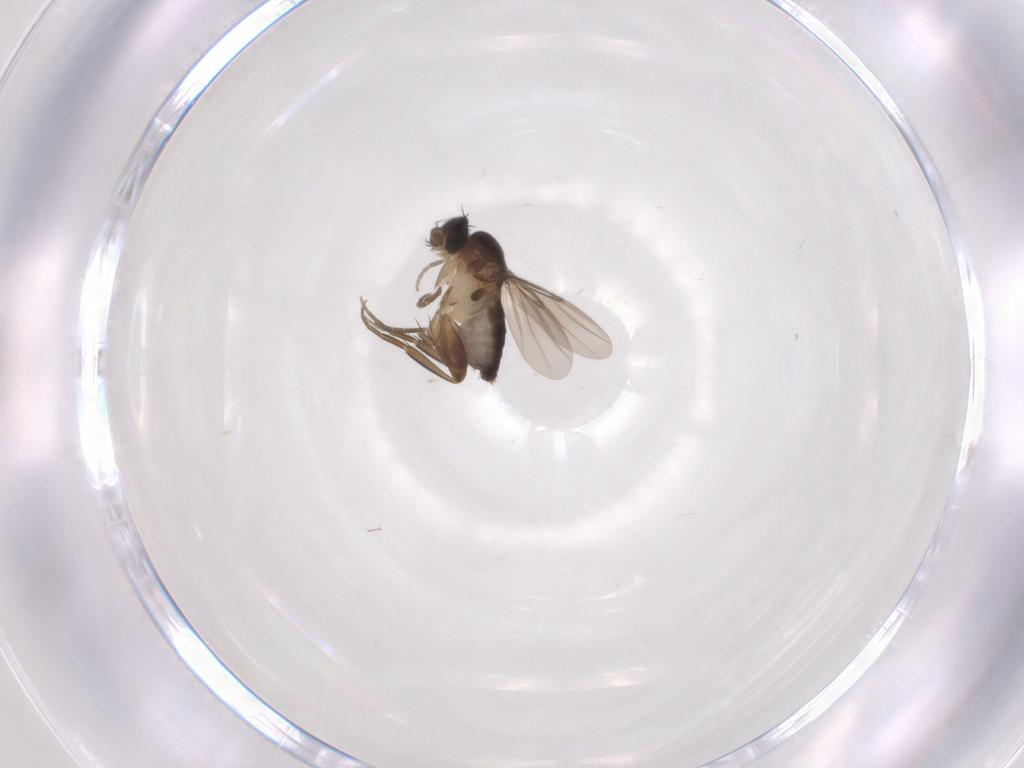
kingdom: Animalia
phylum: Arthropoda
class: Insecta
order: Diptera
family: Phoridae
